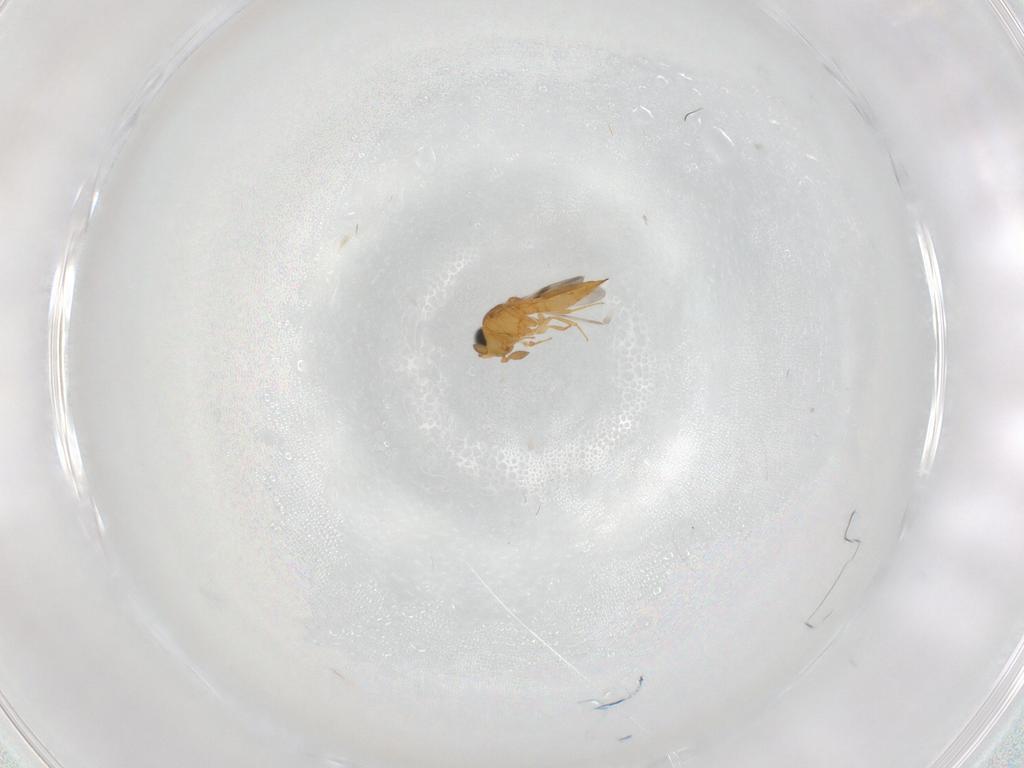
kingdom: Animalia
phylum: Arthropoda
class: Insecta
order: Hymenoptera
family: Scelionidae
